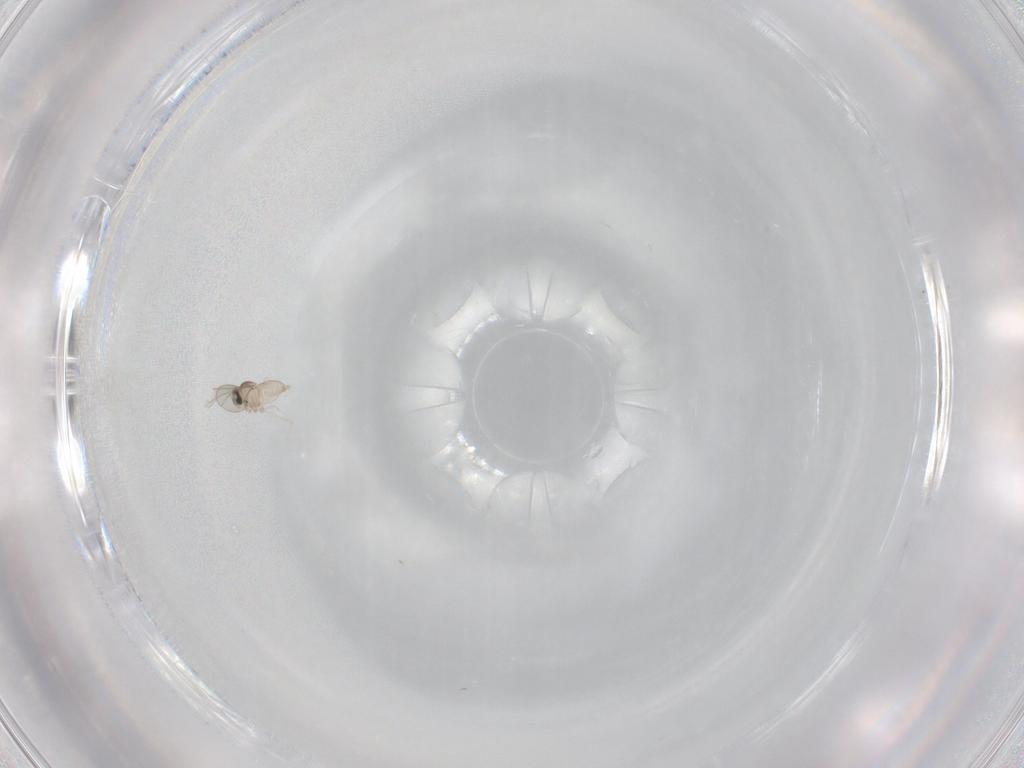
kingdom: Animalia
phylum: Arthropoda
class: Insecta
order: Diptera
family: Cecidomyiidae
